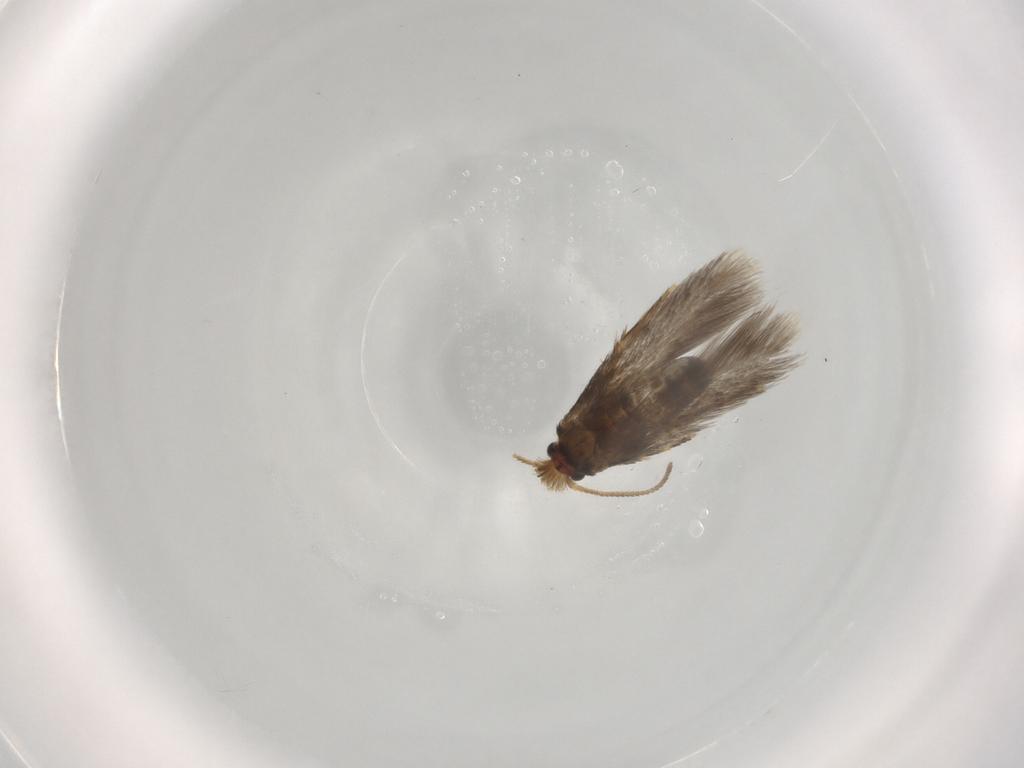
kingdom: Animalia
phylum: Arthropoda
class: Insecta
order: Lepidoptera
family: Nepticulidae
